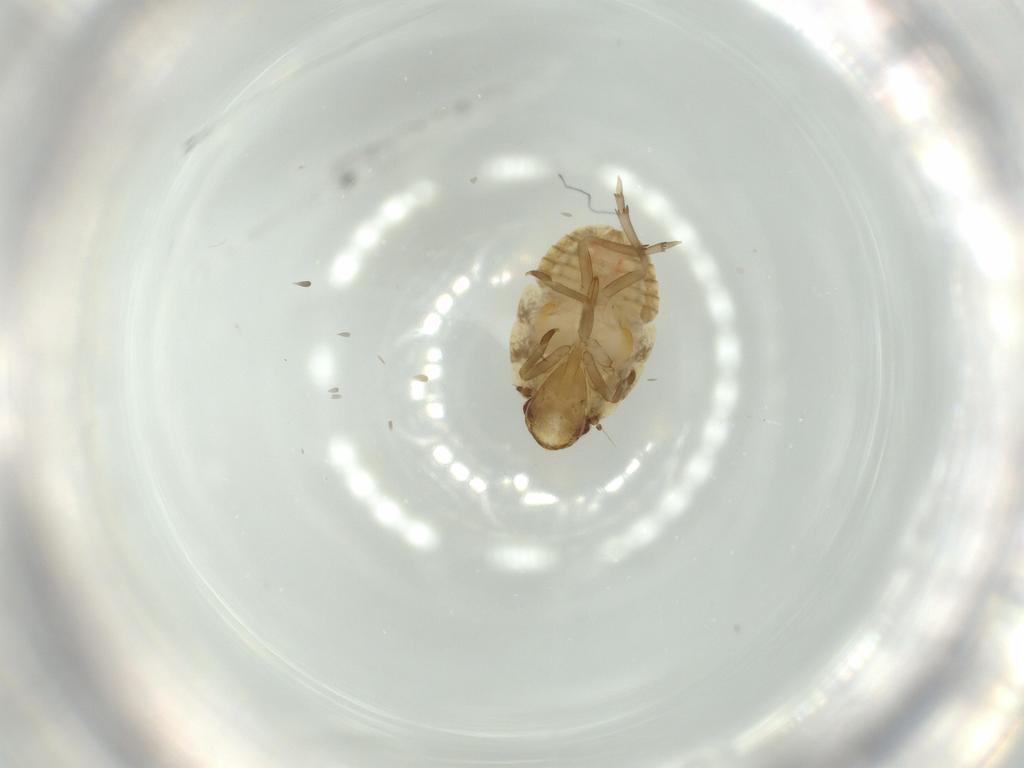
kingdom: Animalia
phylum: Arthropoda
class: Insecta
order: Hemiptera
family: Flatidae
